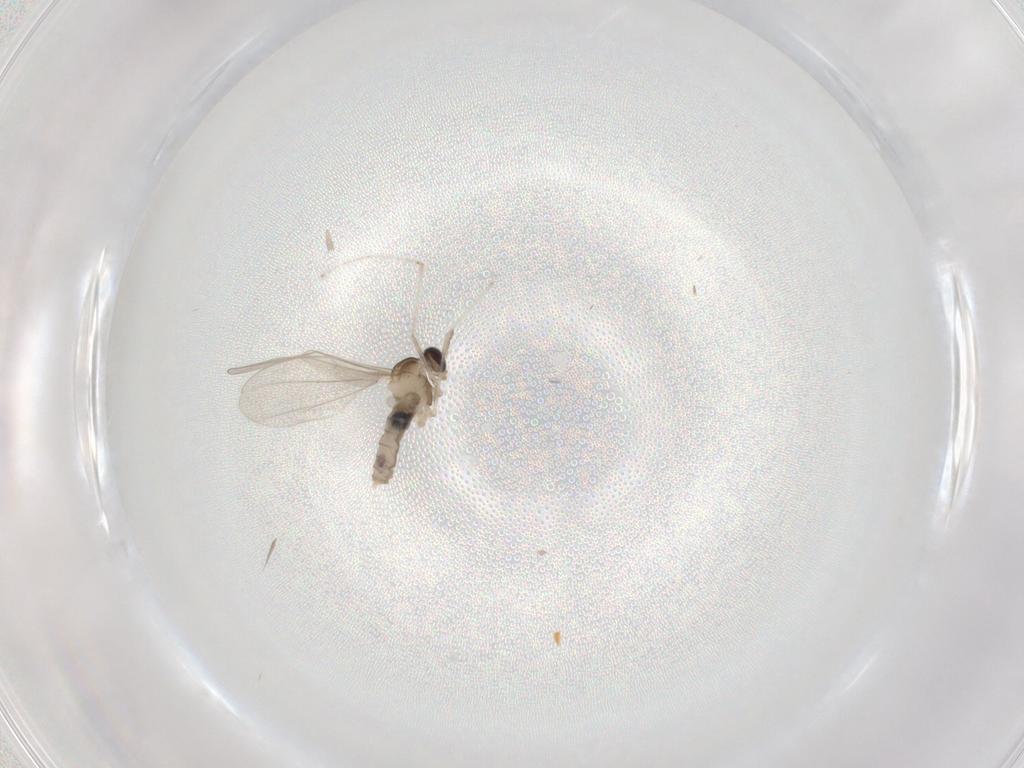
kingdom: Animalia
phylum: Arthropoda
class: Insecta
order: Diptera
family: Cecidomyiidae
